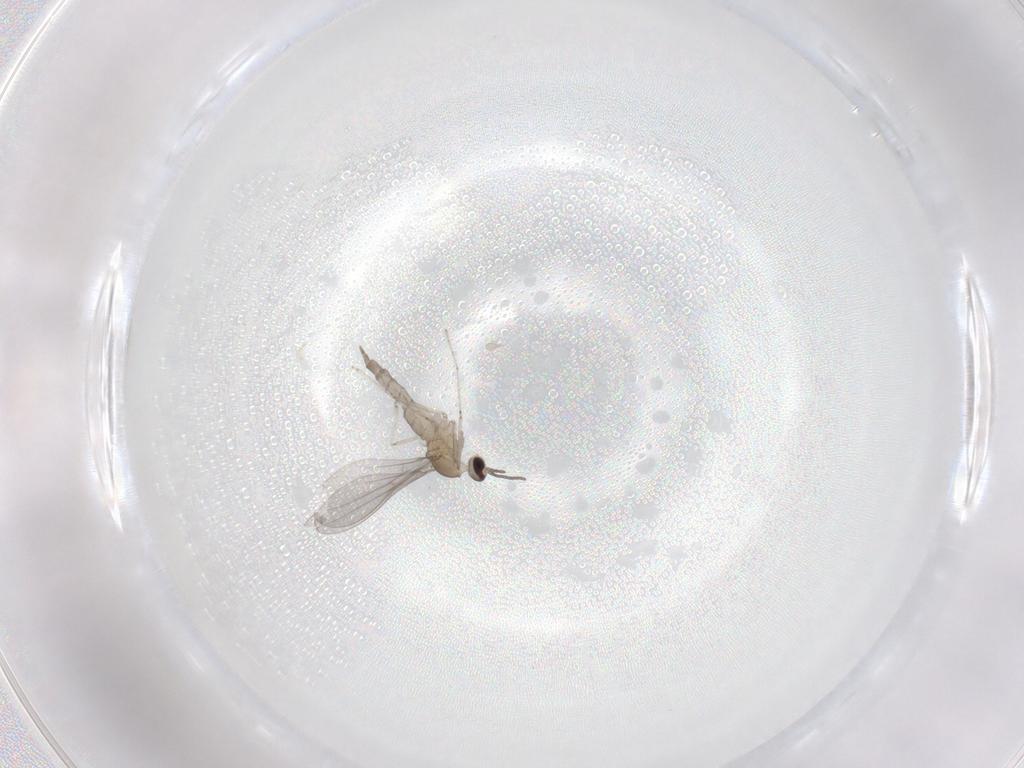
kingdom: Animalia
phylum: Arthropoda
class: Insecta
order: Diptera
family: Cecidomyiidae
